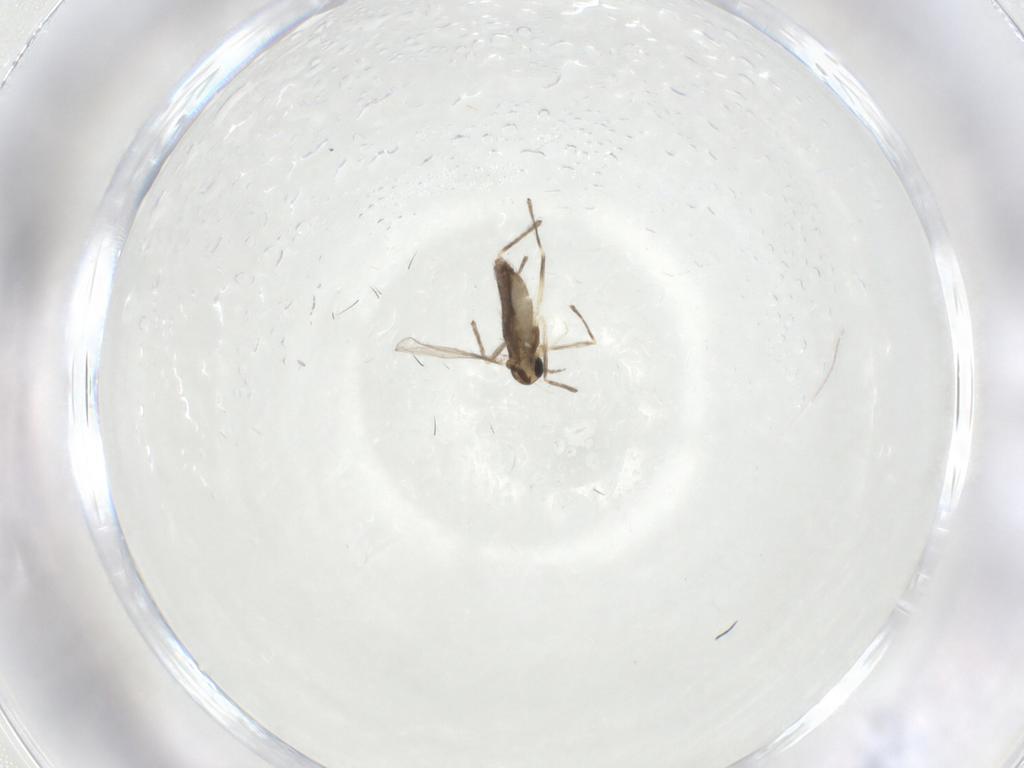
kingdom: Animalia
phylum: Arthropoda
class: Insecta
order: Diptera
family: Chironomidae
